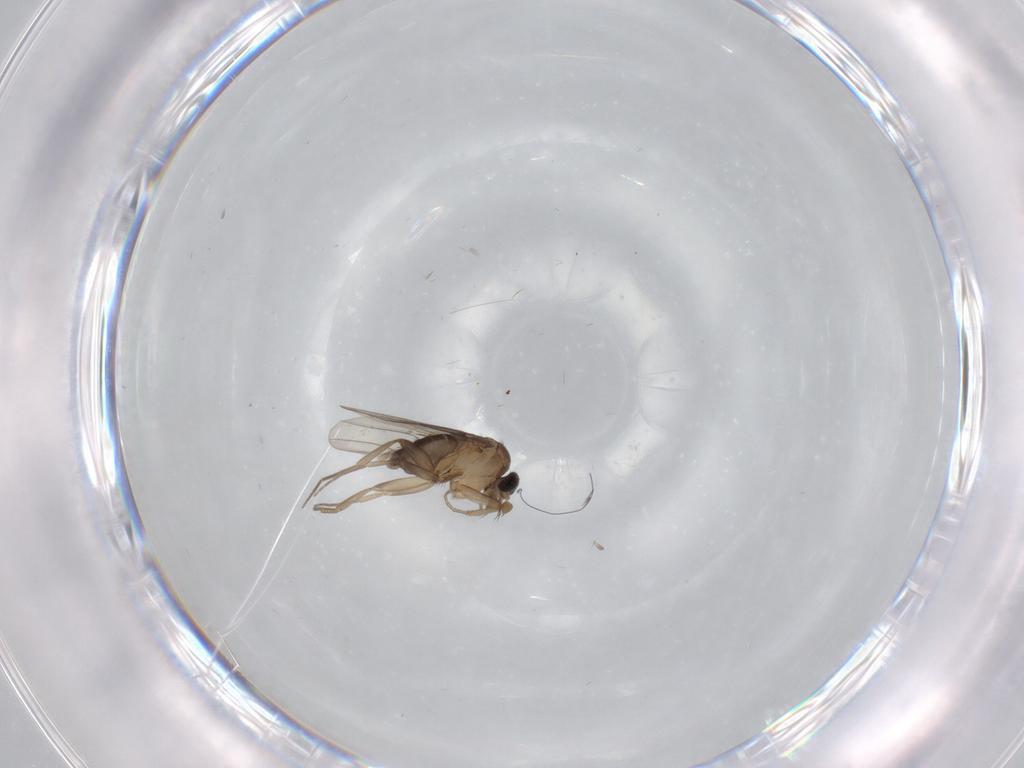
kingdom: Animalia
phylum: Arthropoda
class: Insecta
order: Diptera
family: Phoridae
